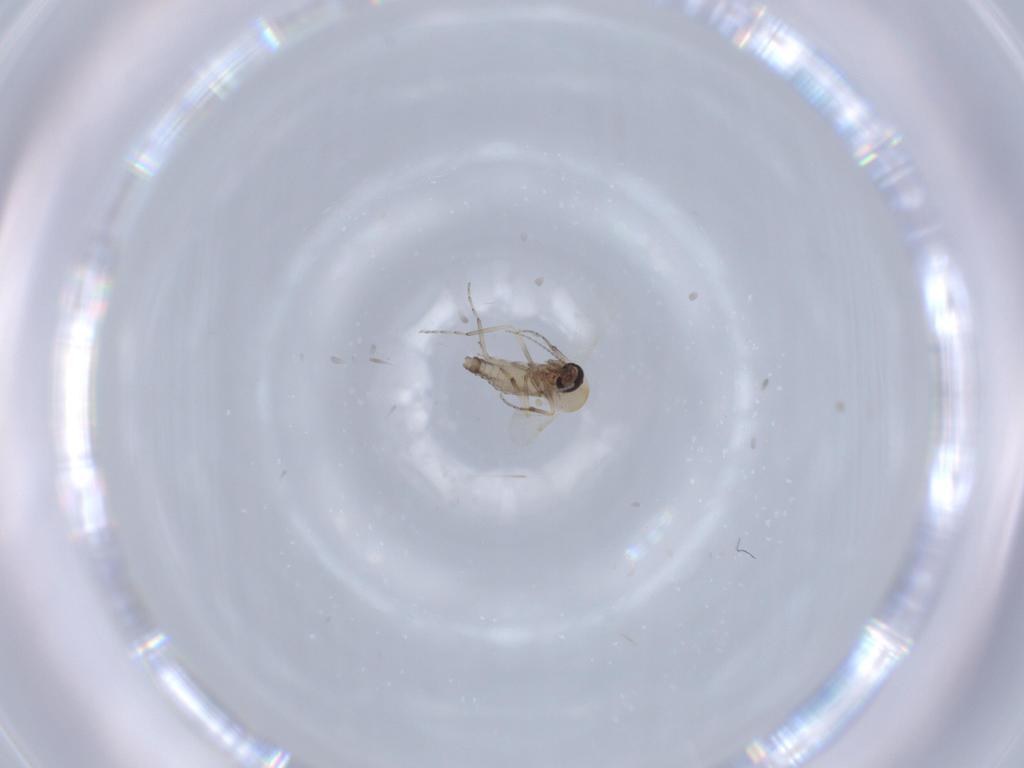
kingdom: Animalia
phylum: Arthropoda
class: Insecta
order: Diptera
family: Ceratopogonidae
